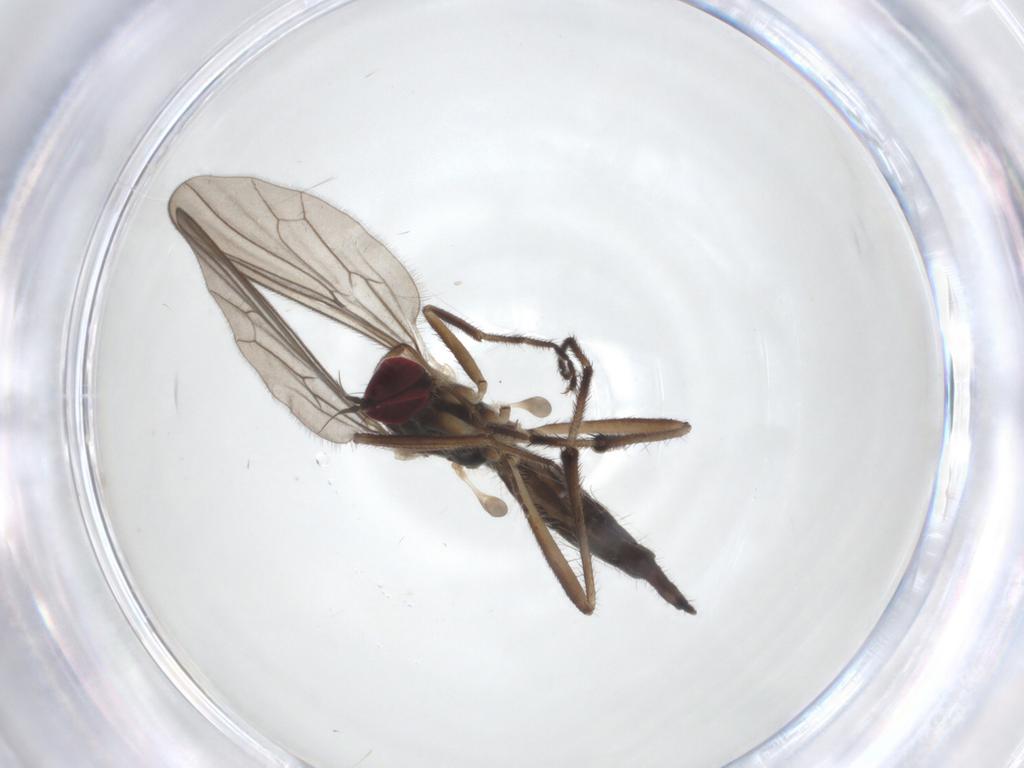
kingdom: Animalia
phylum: Arthropoda
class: Insecta
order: Diptera
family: Hybotidae
